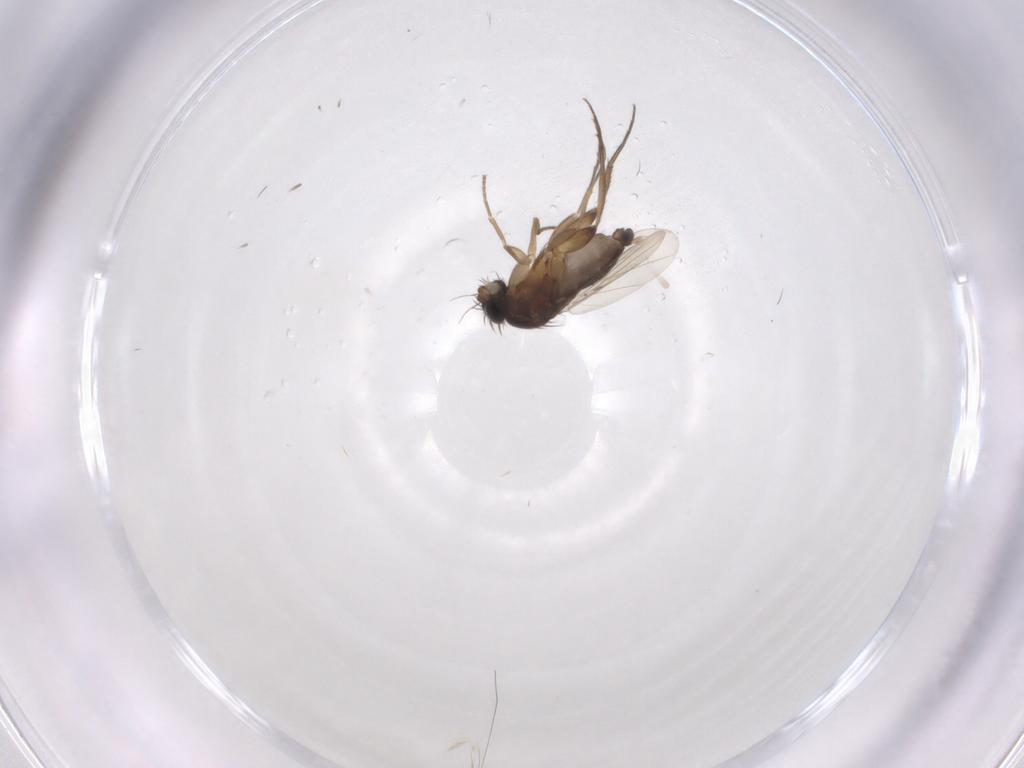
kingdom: Animalia
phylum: Arthropoda
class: Insecta
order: Diptera
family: Phoridae
